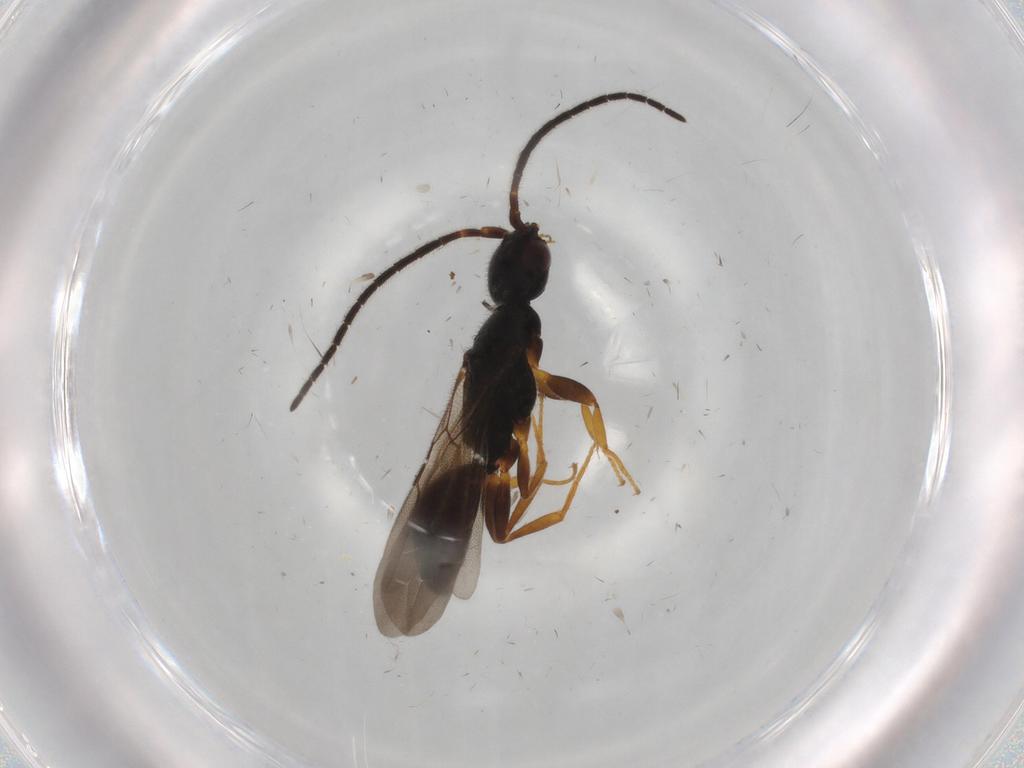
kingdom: Animalia
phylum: Arthropoda
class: Insecta
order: Hymenoptera
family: Bethylidae
